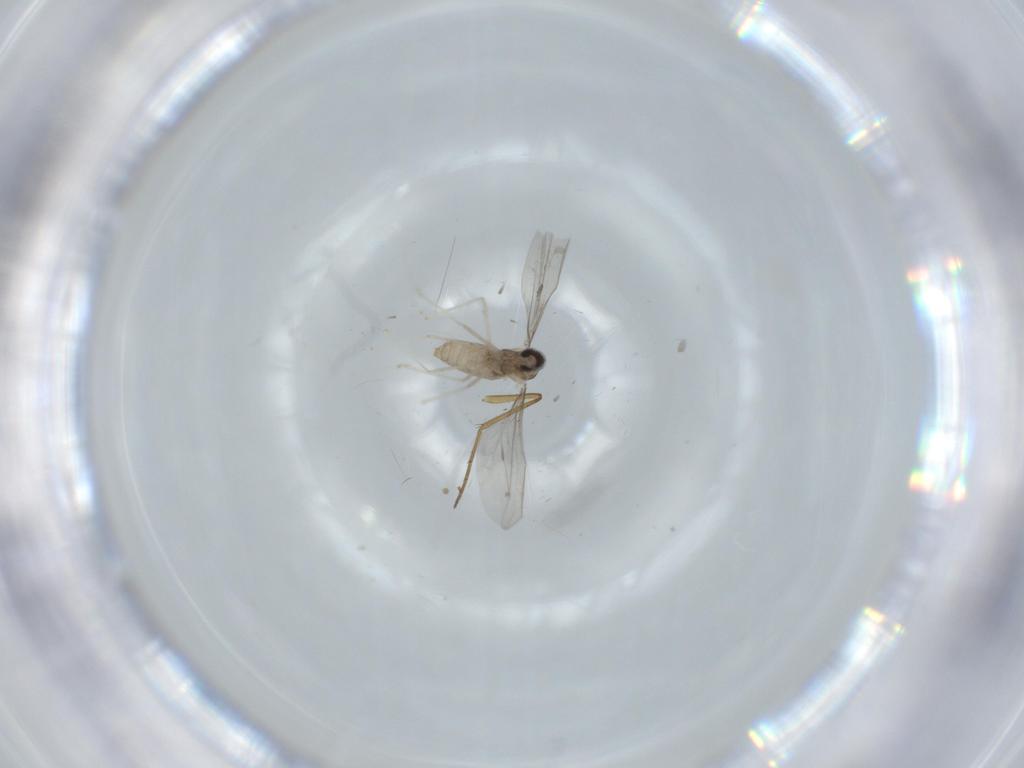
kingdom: Animalia
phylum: Arthropoda
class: Insecta
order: Diptera
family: Cecidomyiidae
